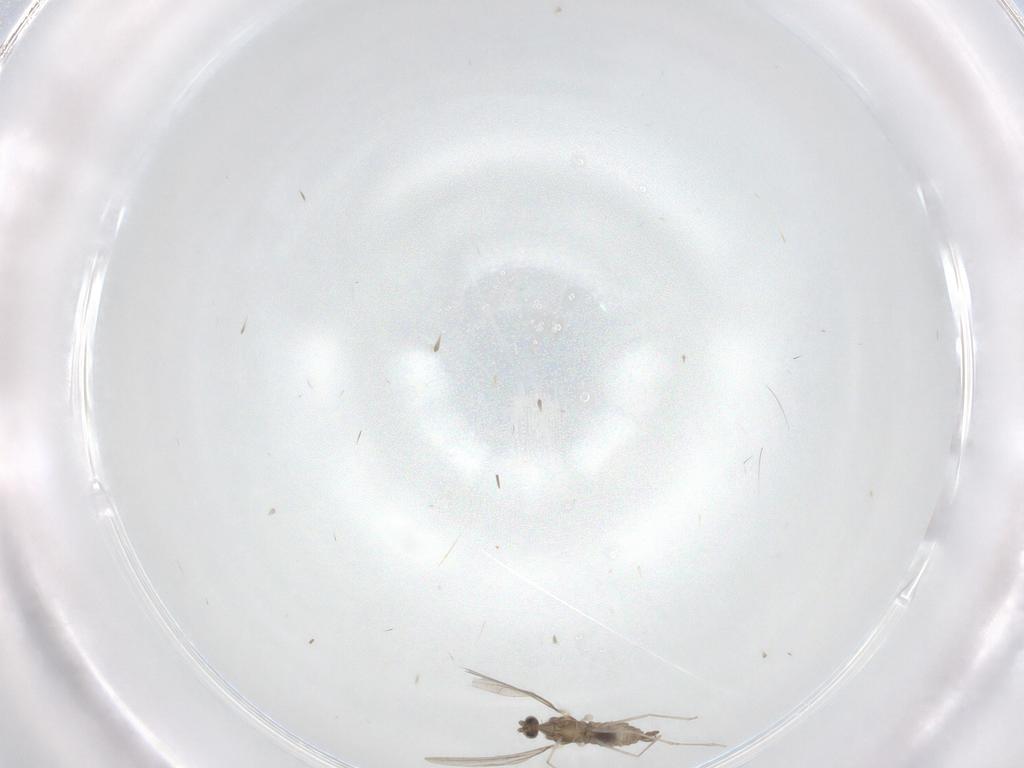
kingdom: Animalia
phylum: Arthropoda
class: Insecta
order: Diptera
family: Cecidomyiidae
